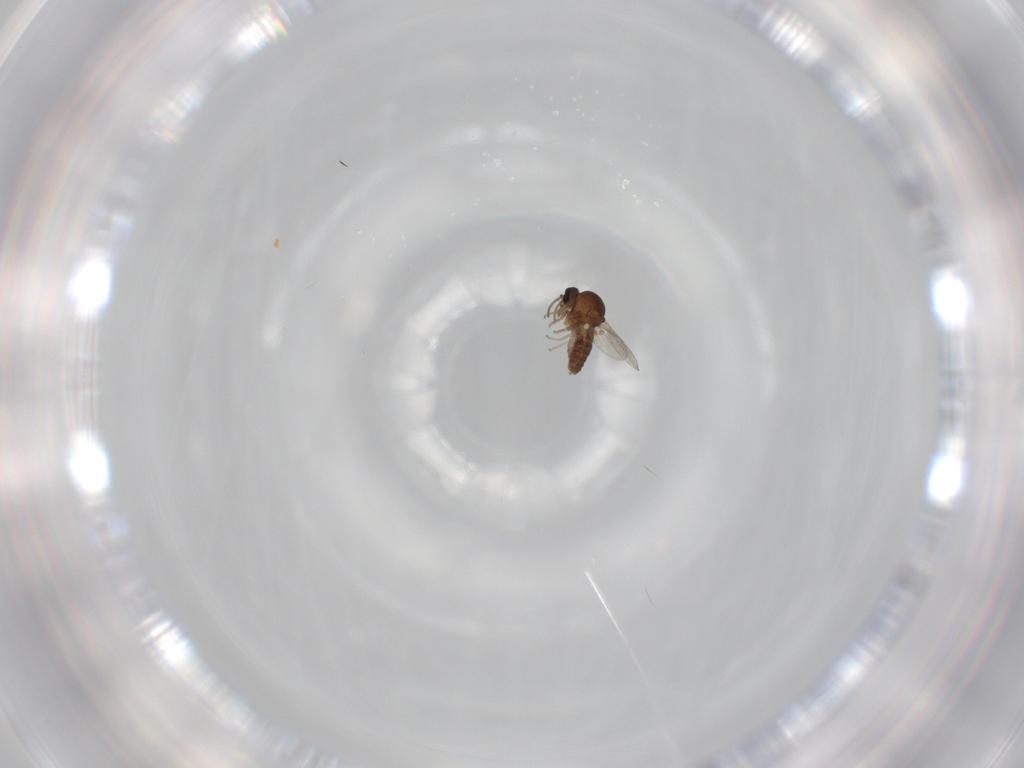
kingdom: Animalia
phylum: Arthropoda
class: Insecta
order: Diptera
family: Ceratopogonidae
